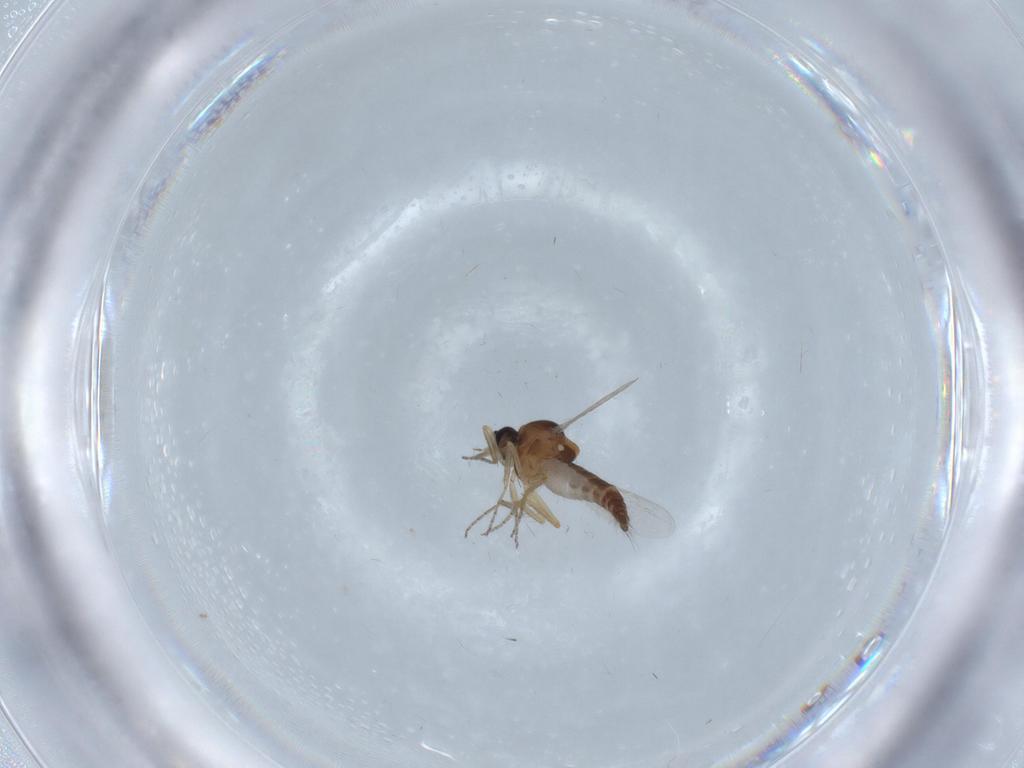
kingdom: Animalia
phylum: Arthropoda
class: Insecta
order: Diptera
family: Ceratopogonidae
